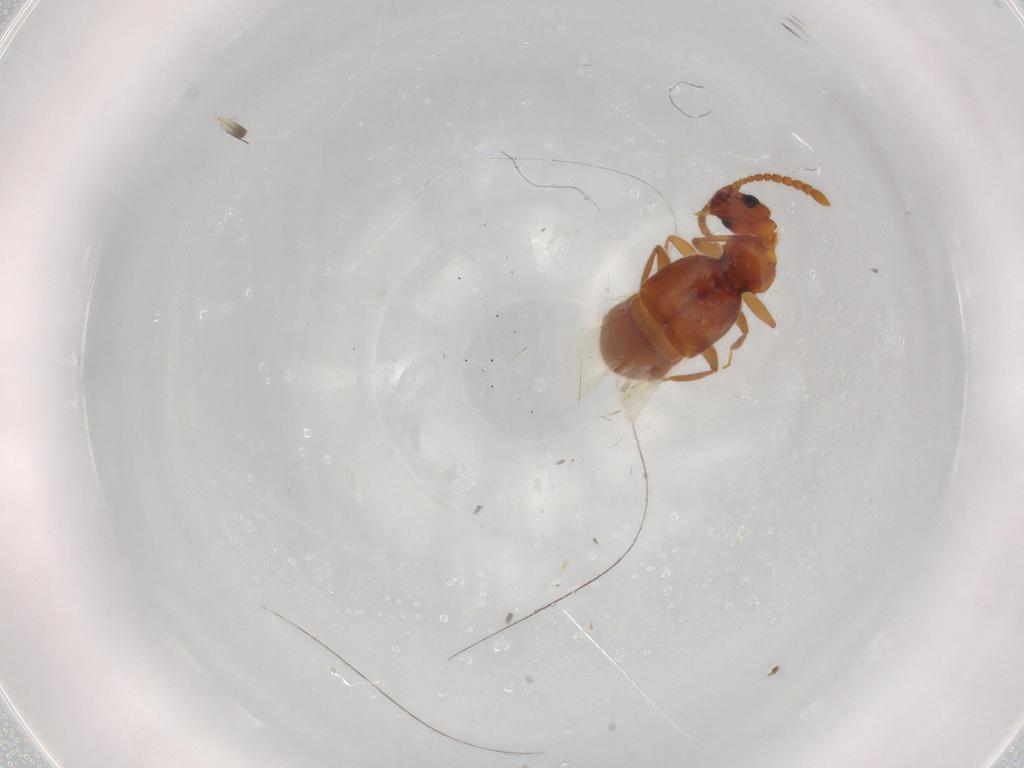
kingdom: Animalia
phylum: Arthropoda
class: Insecta
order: Coleoptera
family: Staphylinidae
